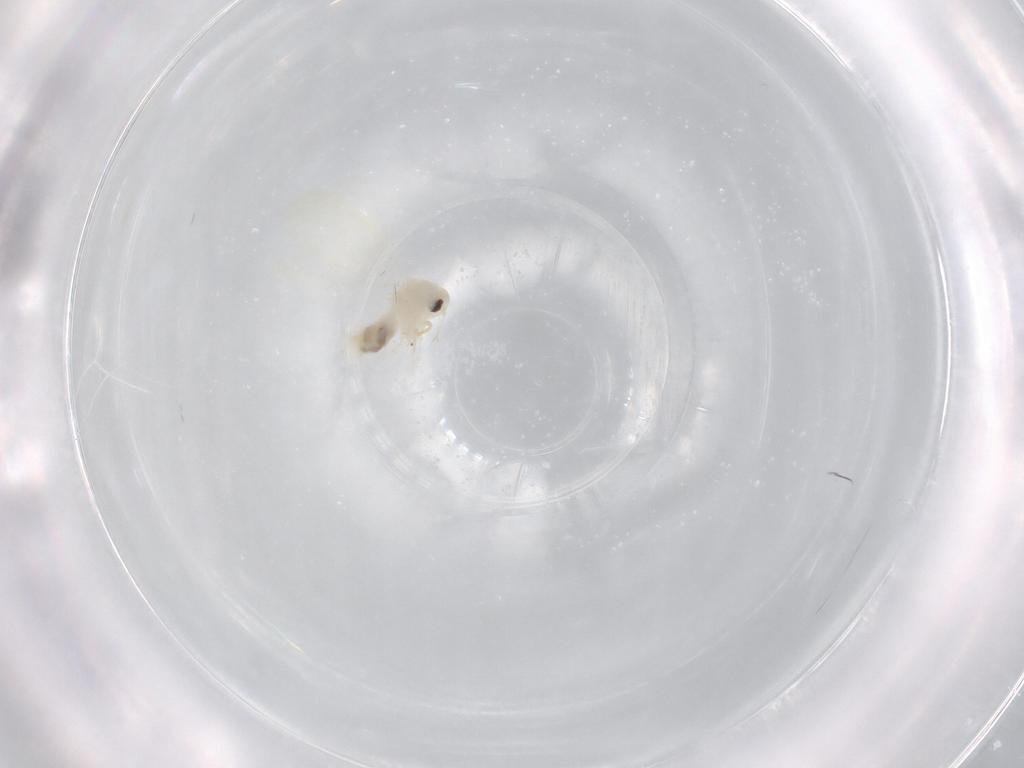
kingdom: Animalia
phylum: Arthropoda
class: Insecta
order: Hemiptera
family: Aleyrodidae
